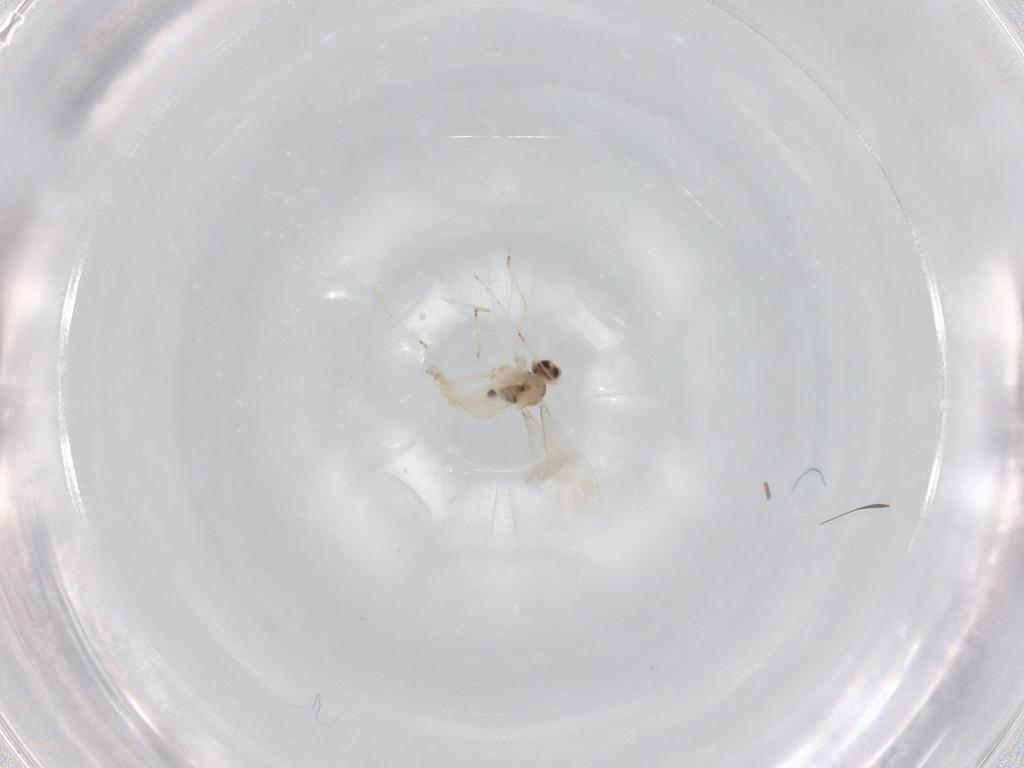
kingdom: Animalia
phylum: Arthropoda
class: Insecta
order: Diptera
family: Cecidomyiidae
